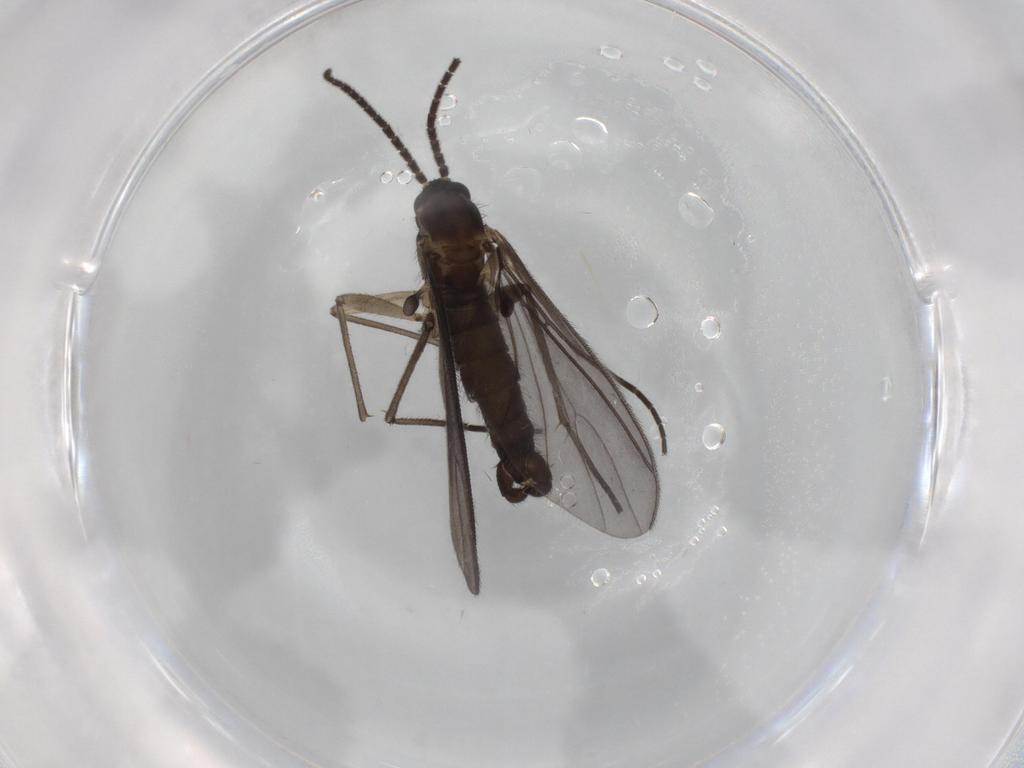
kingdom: Animalia
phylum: Arthropoda
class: Insecta
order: Diptera
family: Sciaridae
